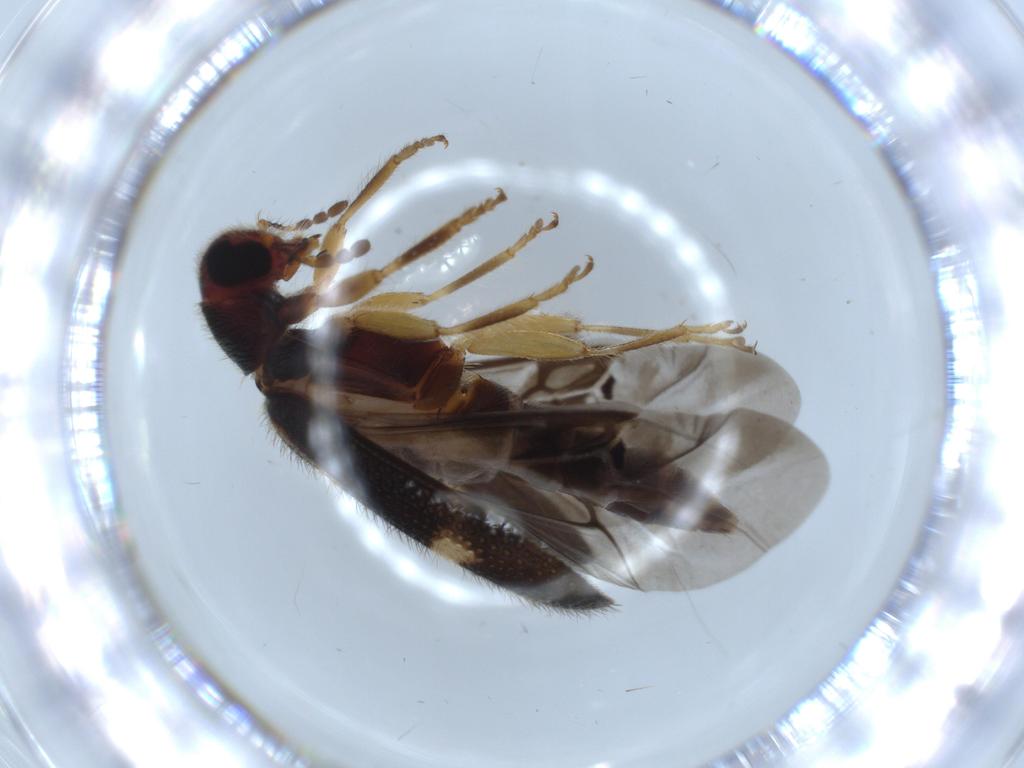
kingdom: Animalia
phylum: Arthropoda
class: Insecta
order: Coleoptera
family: Cleridae
